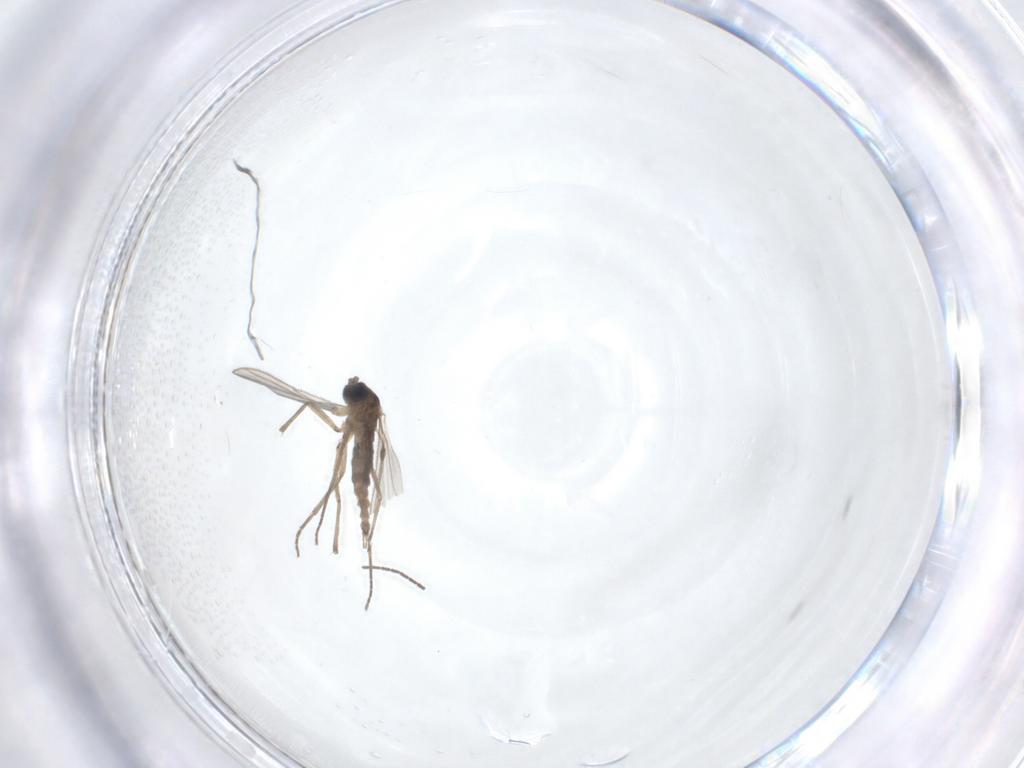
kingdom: Animalia
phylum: Arthropoda
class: Insecta
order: Diptera
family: Sciaridae
